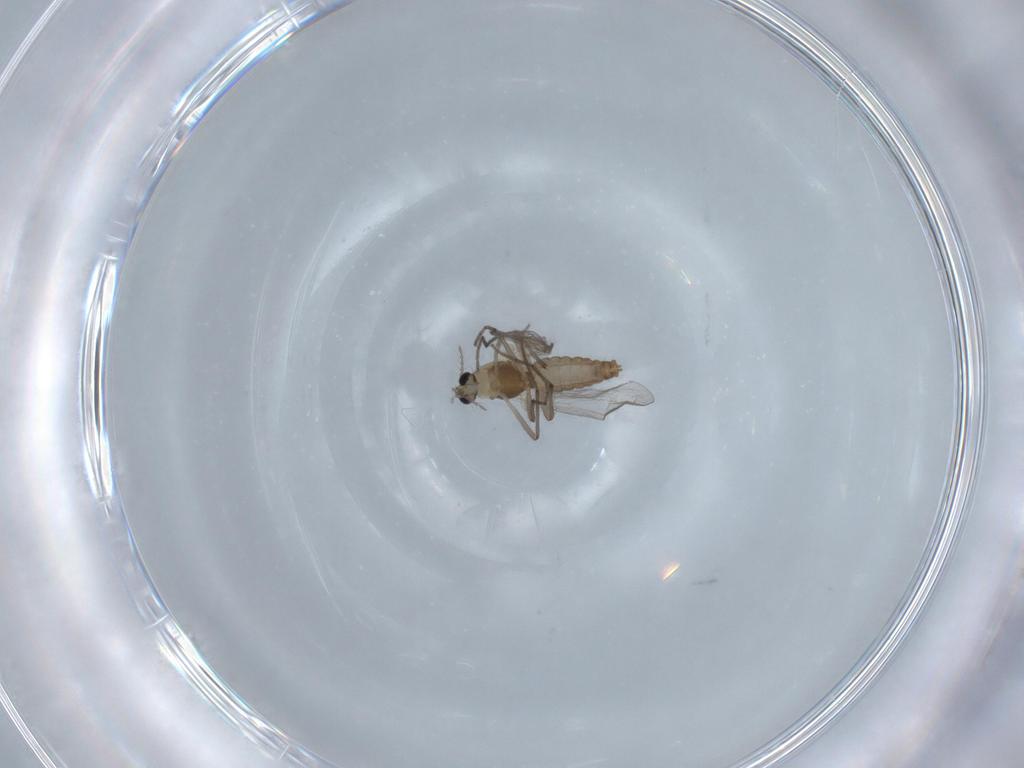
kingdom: Animalia
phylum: Arthropoda
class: Insecta
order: Diptera
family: Chironomidae
